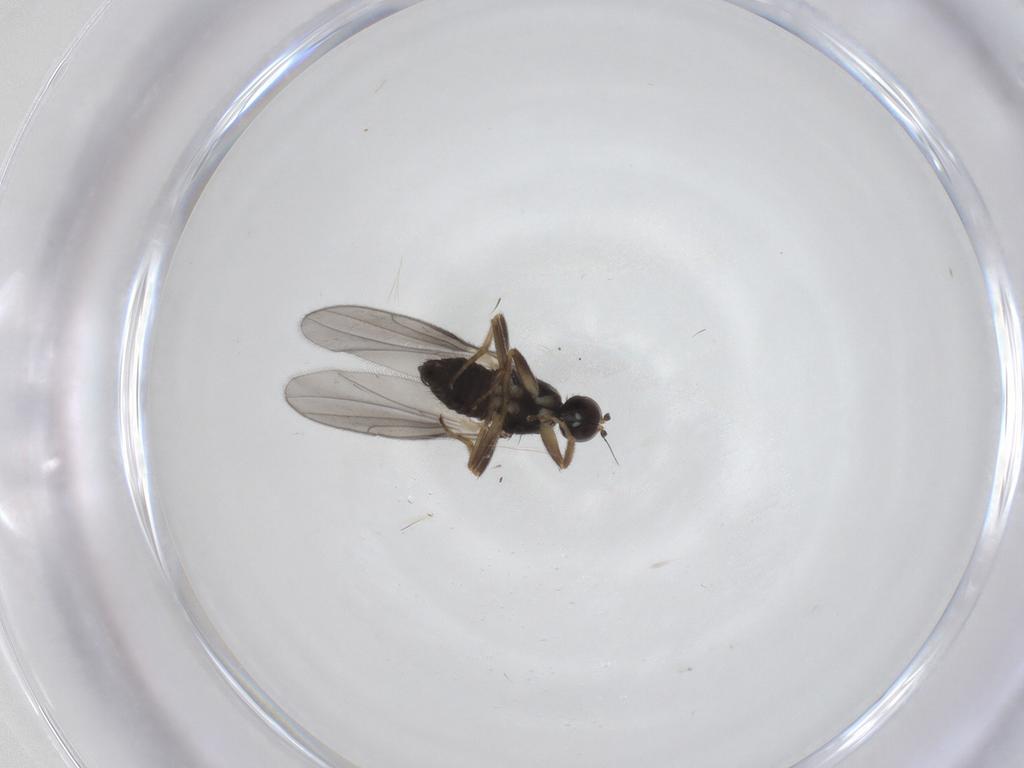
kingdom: Animalia
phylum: Arthropoda
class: Insecta
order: Diptera
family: Hybotidae
